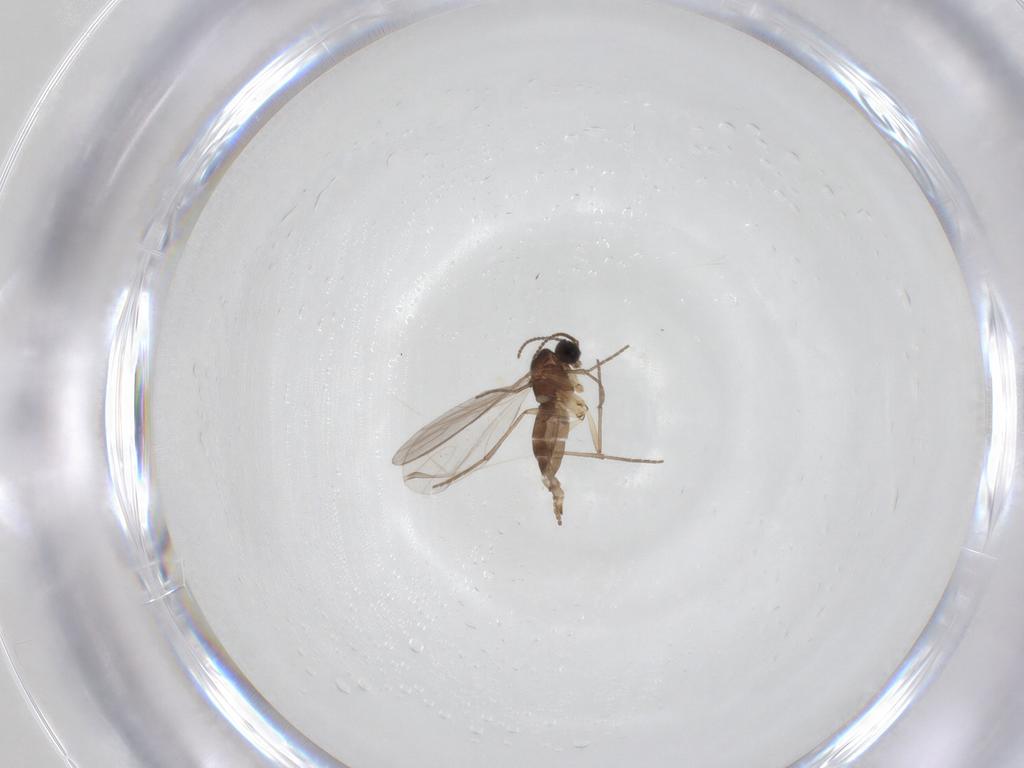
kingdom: Animalia
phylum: Arthropoda
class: Insecta
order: Diptera
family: Sciaridae
